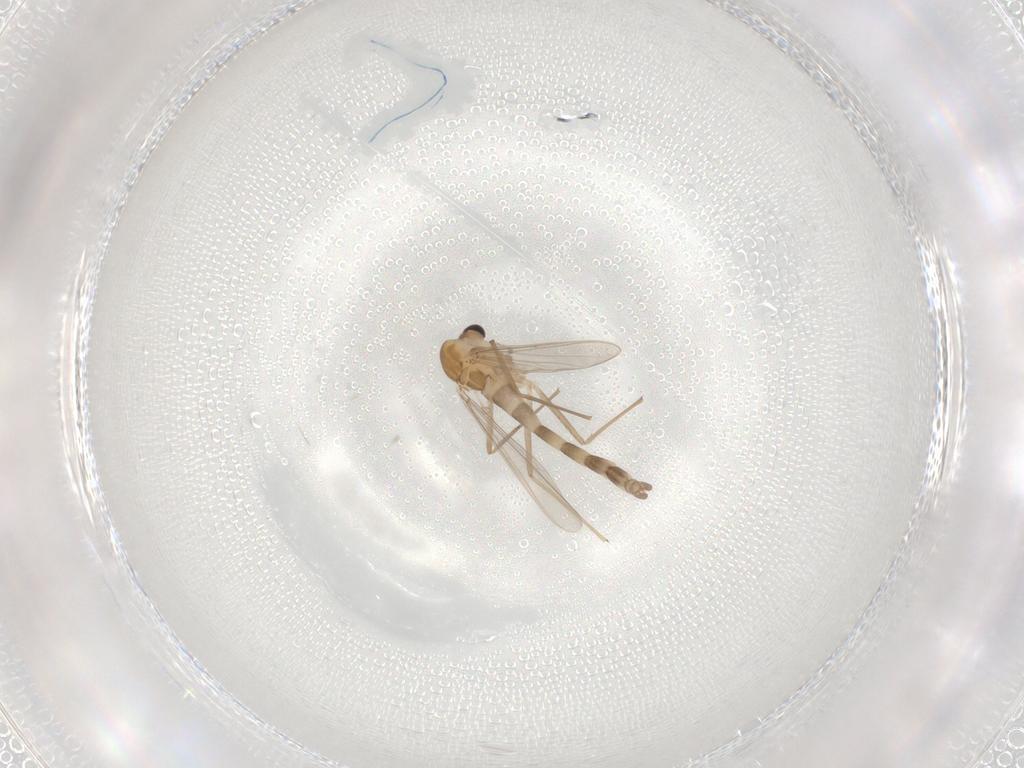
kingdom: Animalia
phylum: Arthropoda
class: Insecta
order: Diptera
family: Chironomidae
